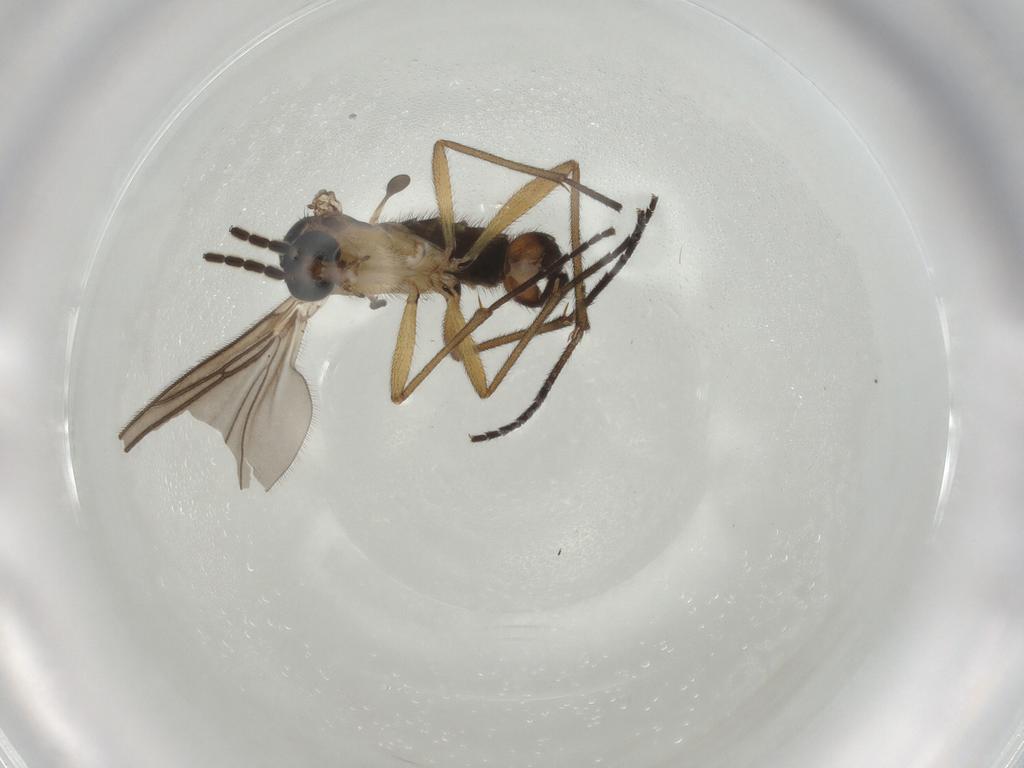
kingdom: Animalia
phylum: Arthropoda
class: Insecta
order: Diptera
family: Sciaridae
